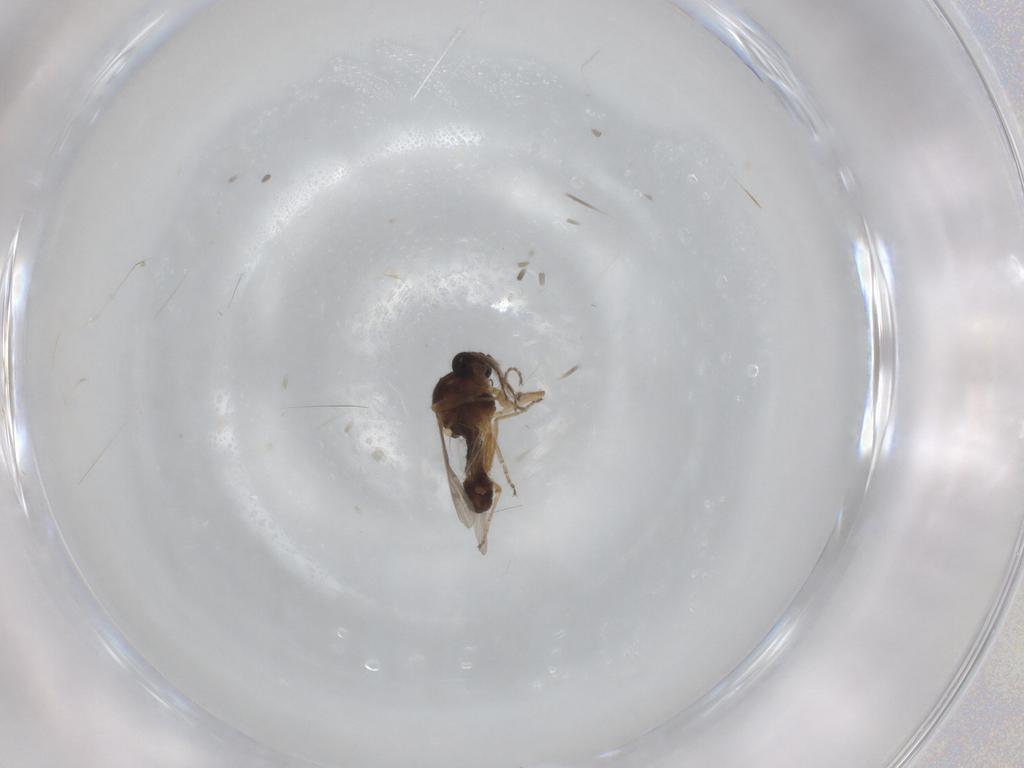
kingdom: Animalia
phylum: Arthropoda
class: Insecta
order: Diptera
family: Ceratopogonidae
